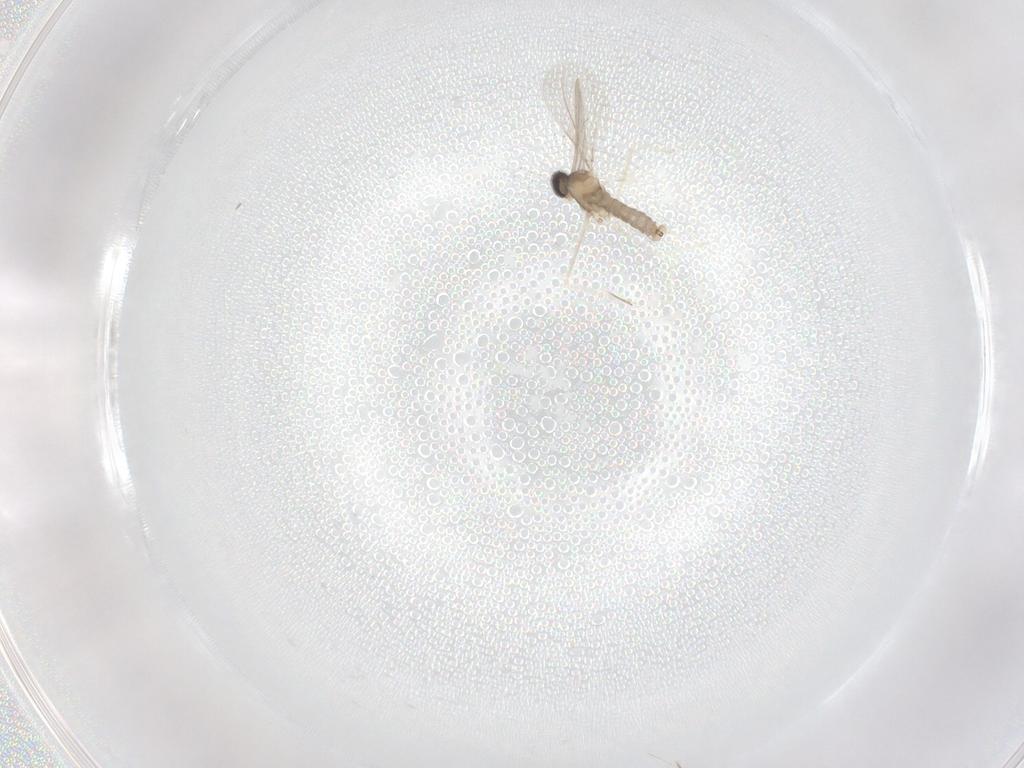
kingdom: Animalia
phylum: Arthropoda
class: Insecta
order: Diptera
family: Cecidomyiidae
